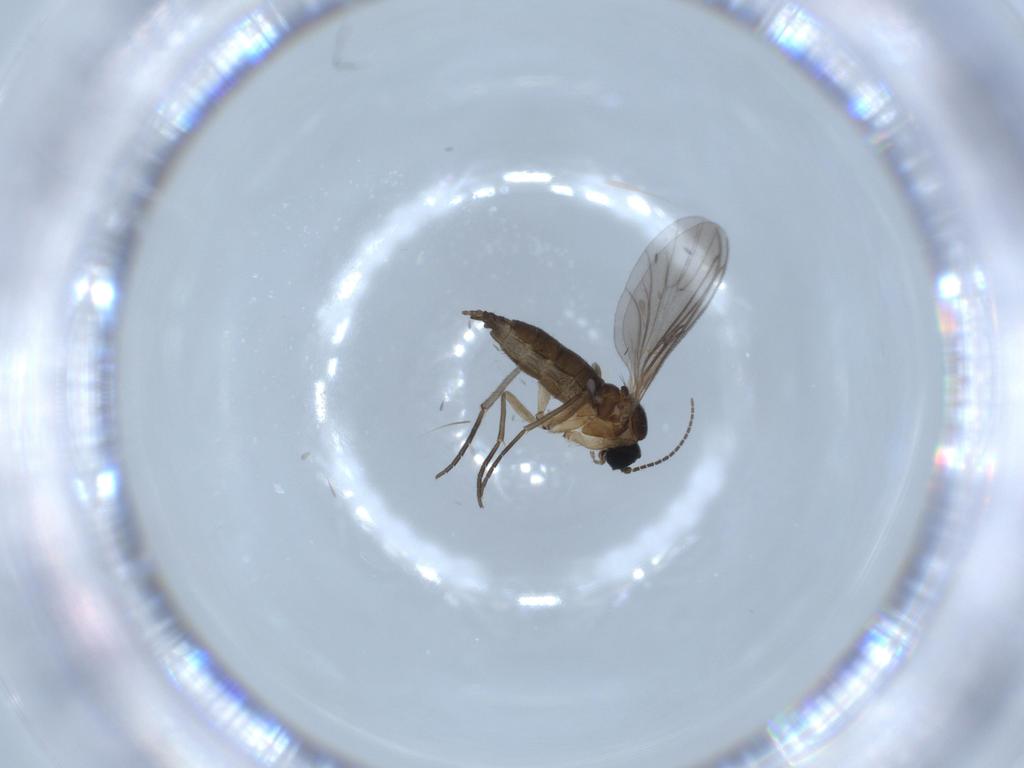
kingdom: Animalia
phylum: Arthropoda
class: Insecta
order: Diptera
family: Sciaridae
